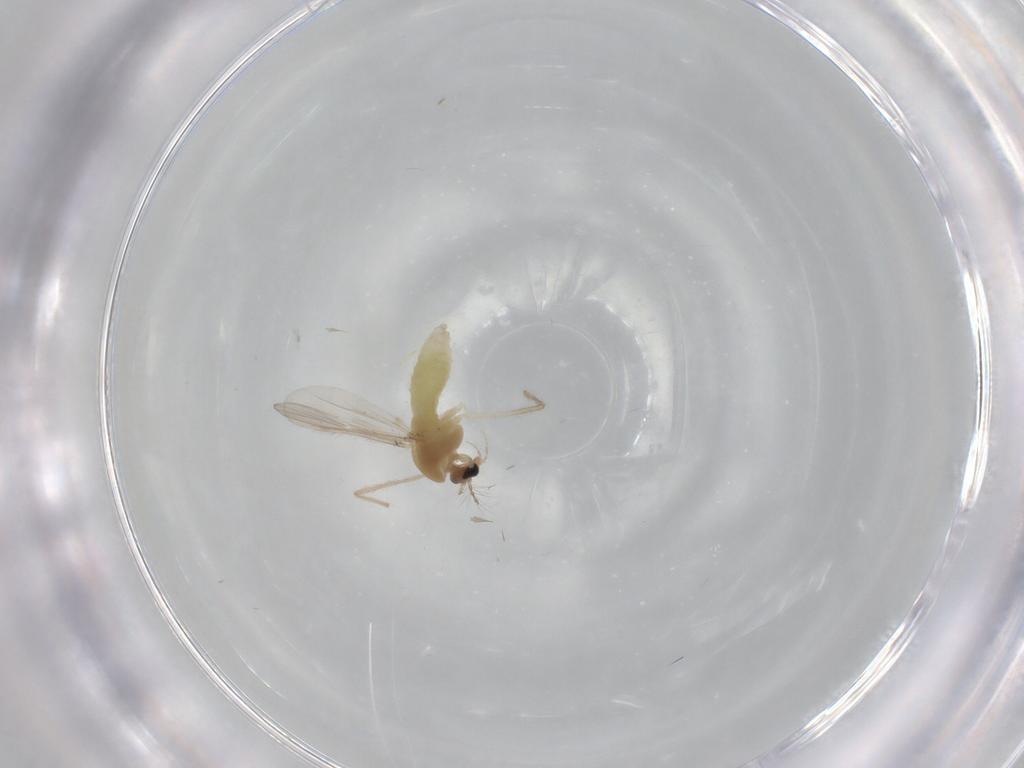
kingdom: Animalia
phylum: Arthropoda
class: Insecta
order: Diptera
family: Chironomidae
